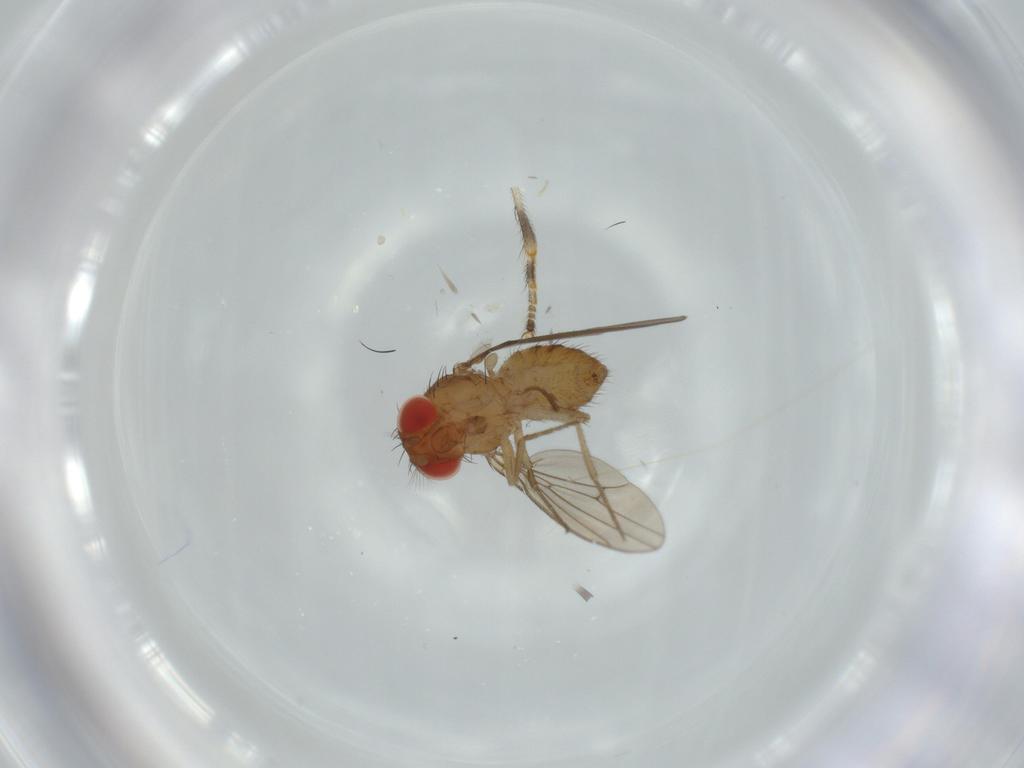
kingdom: Animalia
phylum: Arthropoda
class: Insecta
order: Diptera
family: Drosophilidae
